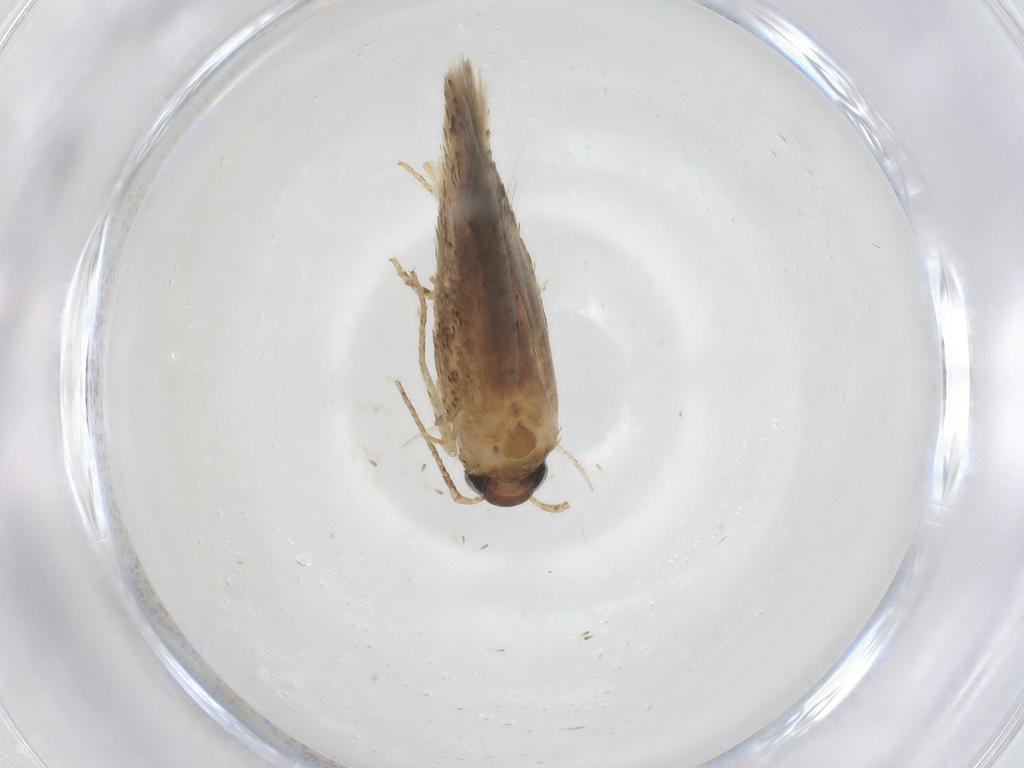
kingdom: Animalia
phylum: Arthropoda
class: Insecta
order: Lepidoptera
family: Gelechiidae
